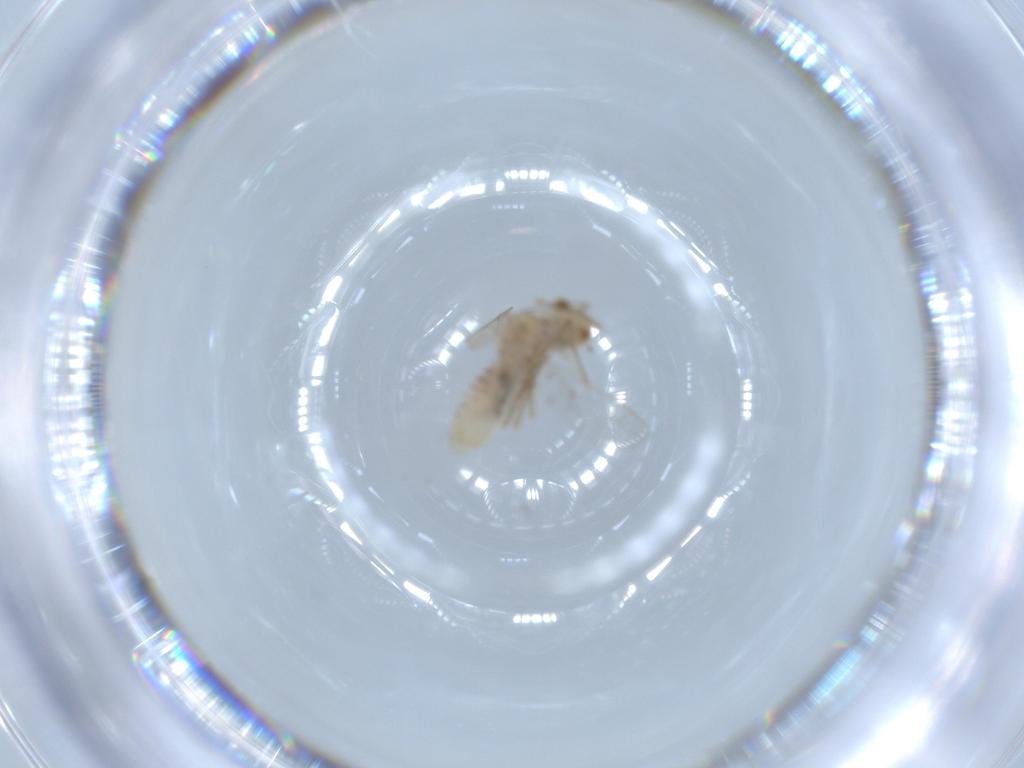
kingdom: Animalia
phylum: Arthropoda
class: Insecta
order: Psocodea
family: Lachesillidae
